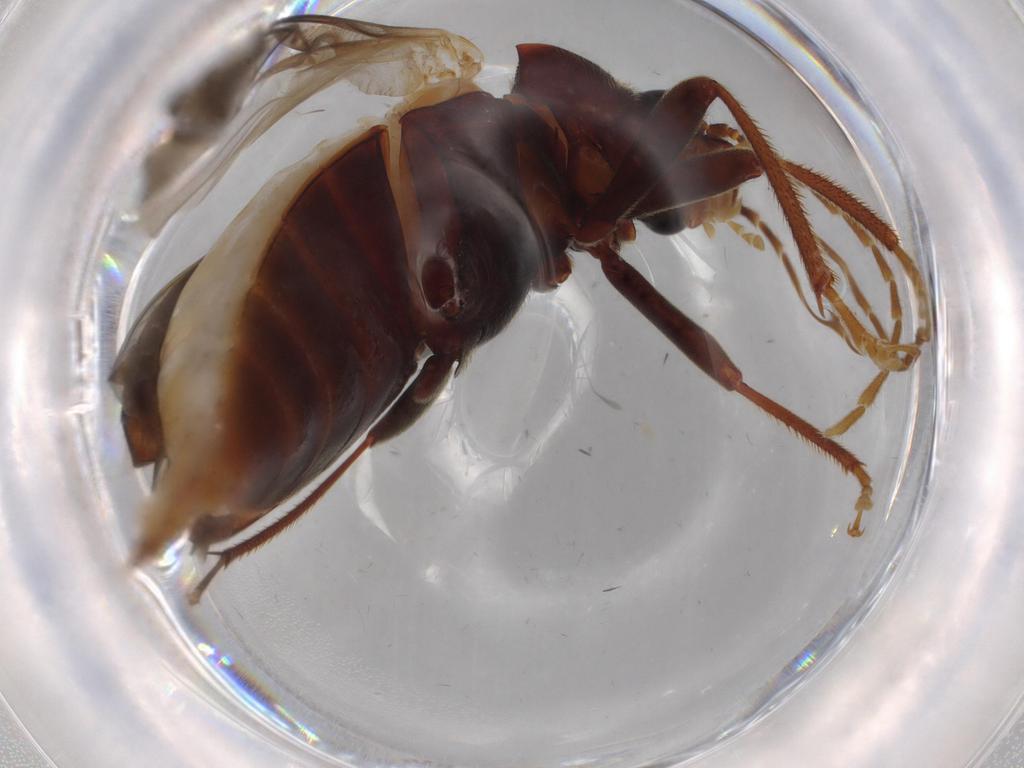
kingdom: Animalia
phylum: Arthropoda
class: Insecta
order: Coleoptera
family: Ptilodactylidae
